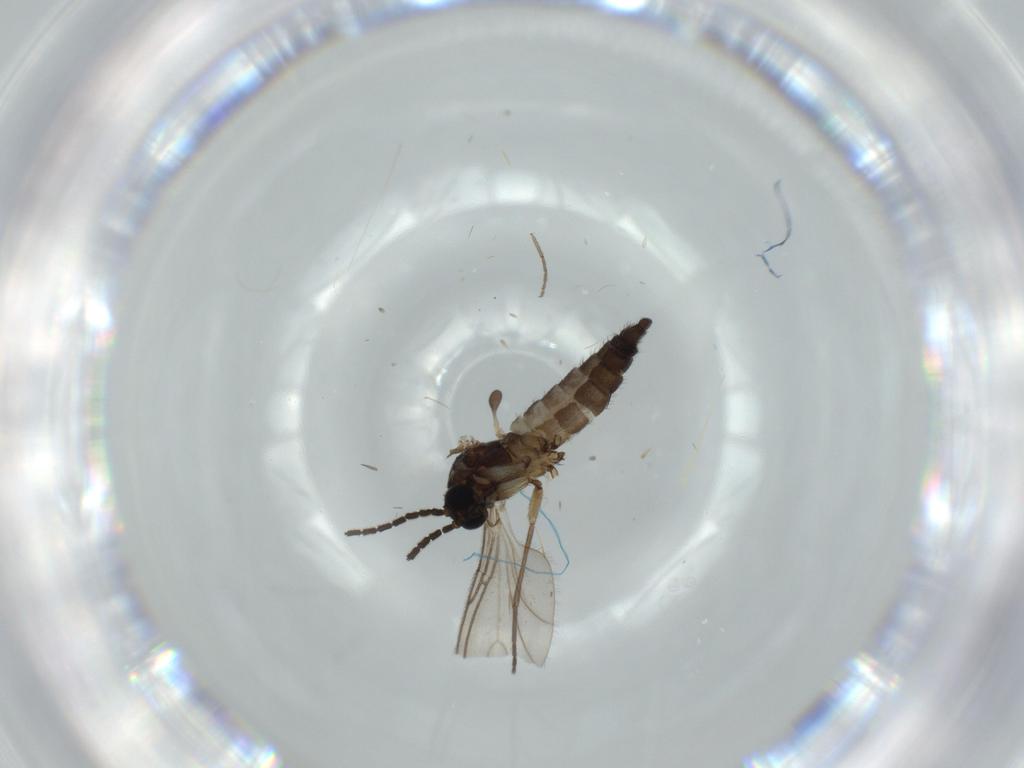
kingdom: Animalia
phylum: Arthropoda
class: Insecta
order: Diptera
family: Sciaridae
